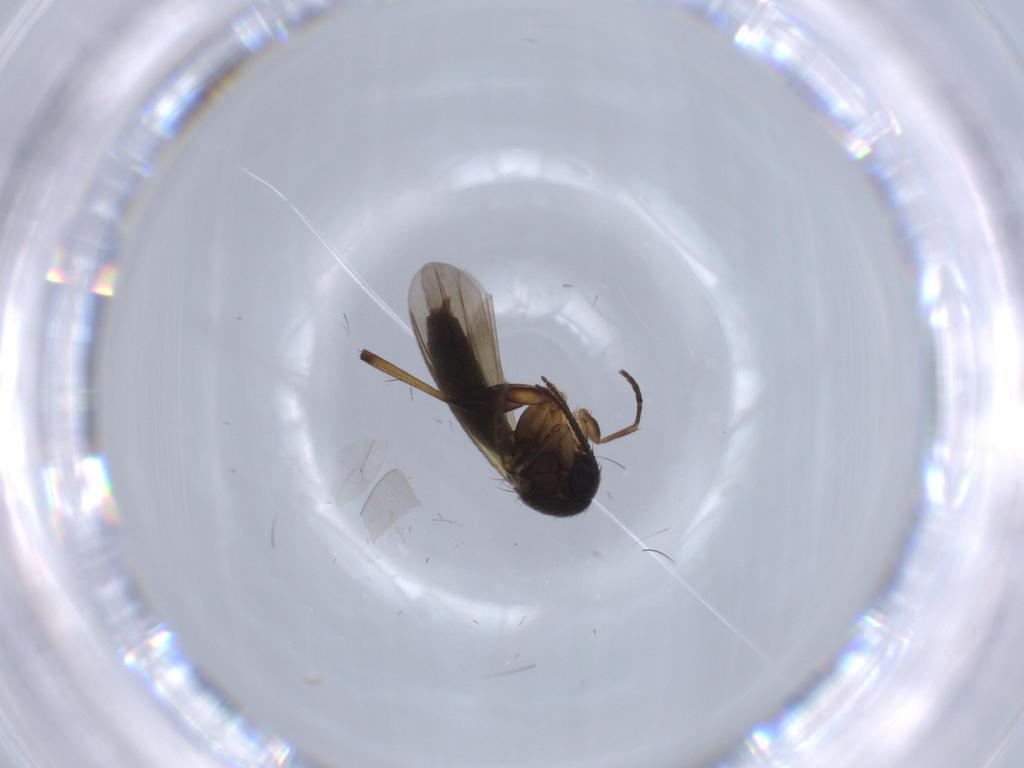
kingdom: Animalia
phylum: Arthropoda
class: Insecta
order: Diptera
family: Mycetophilidae
